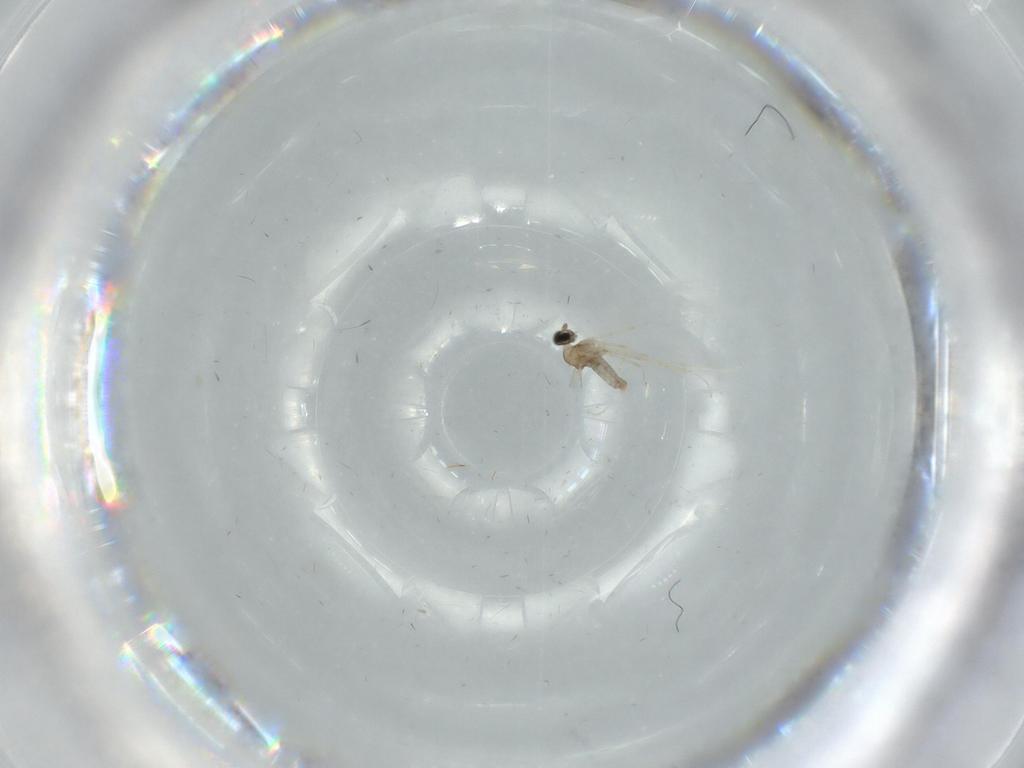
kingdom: Animalia
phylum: Arthropoda
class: Insecta
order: Diptera
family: Cecidomyiidae
